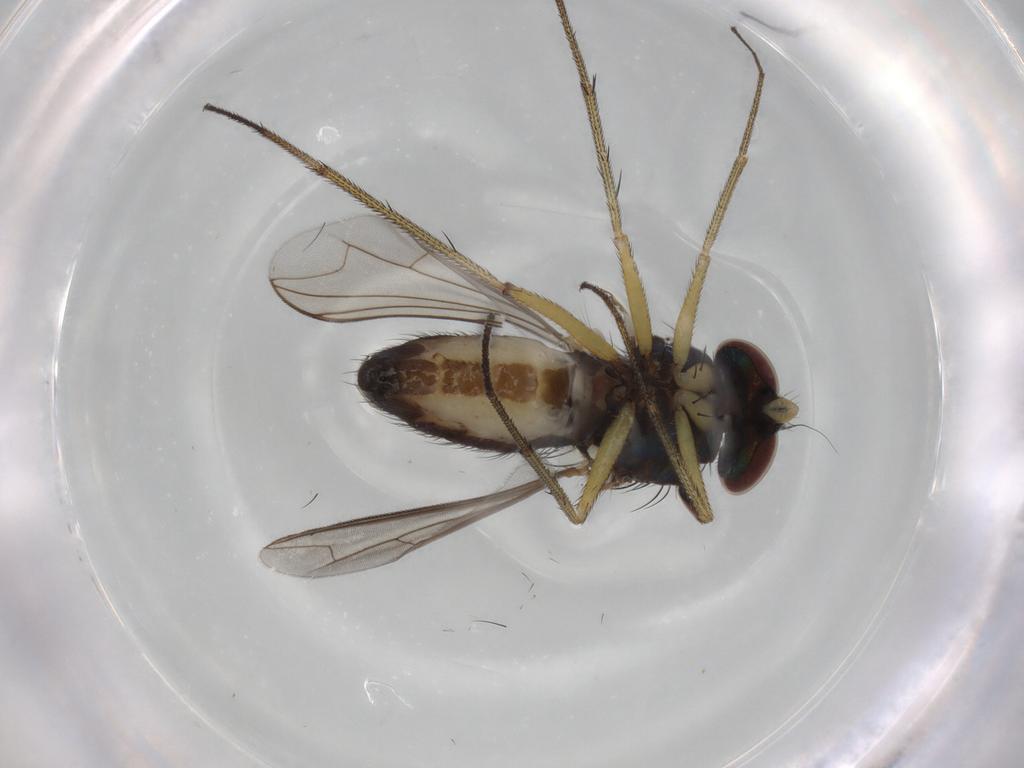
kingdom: Animalia
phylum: Arthropoda
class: Insecta
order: Diptera
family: Dolichopodidae
